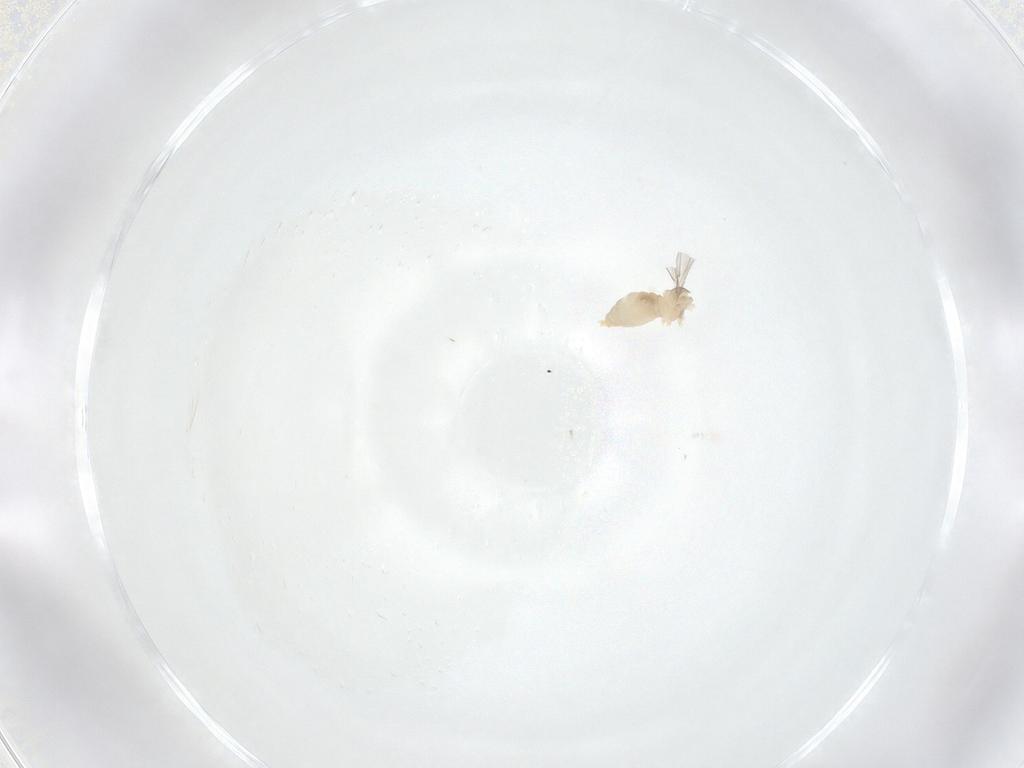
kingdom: Animalia
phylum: Arthropoda
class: Insecta
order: Diptera
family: Cecidomyiidae
